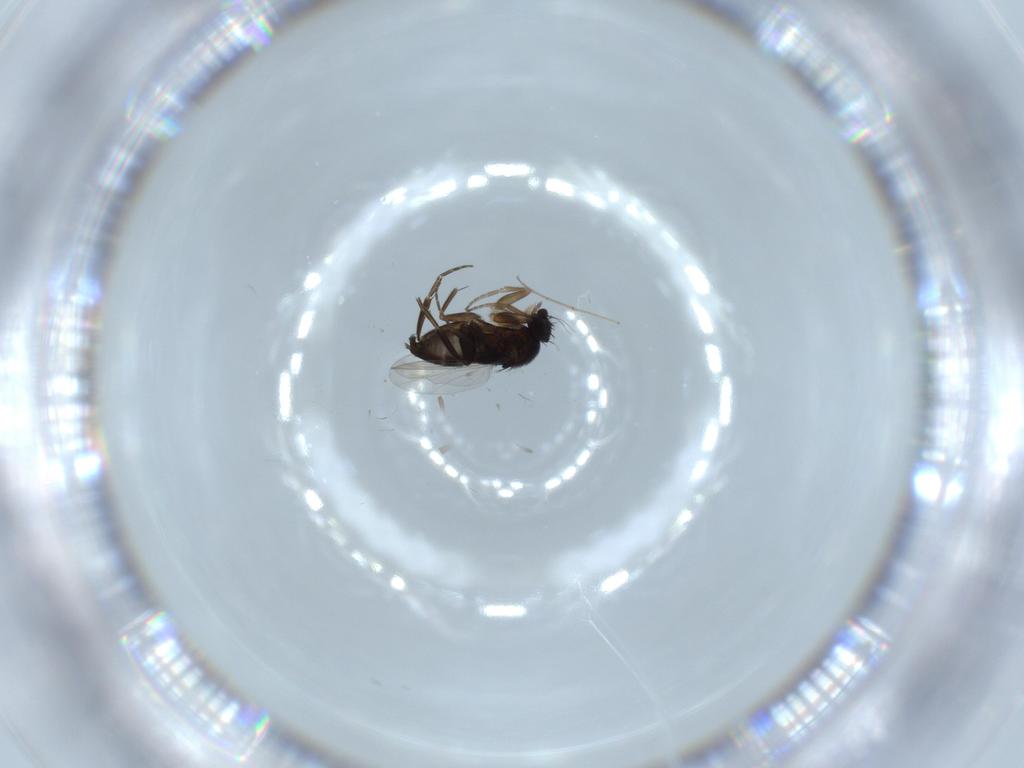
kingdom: Animalia
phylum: Arthropoda
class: Insecta
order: Diptera
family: Phoridae
